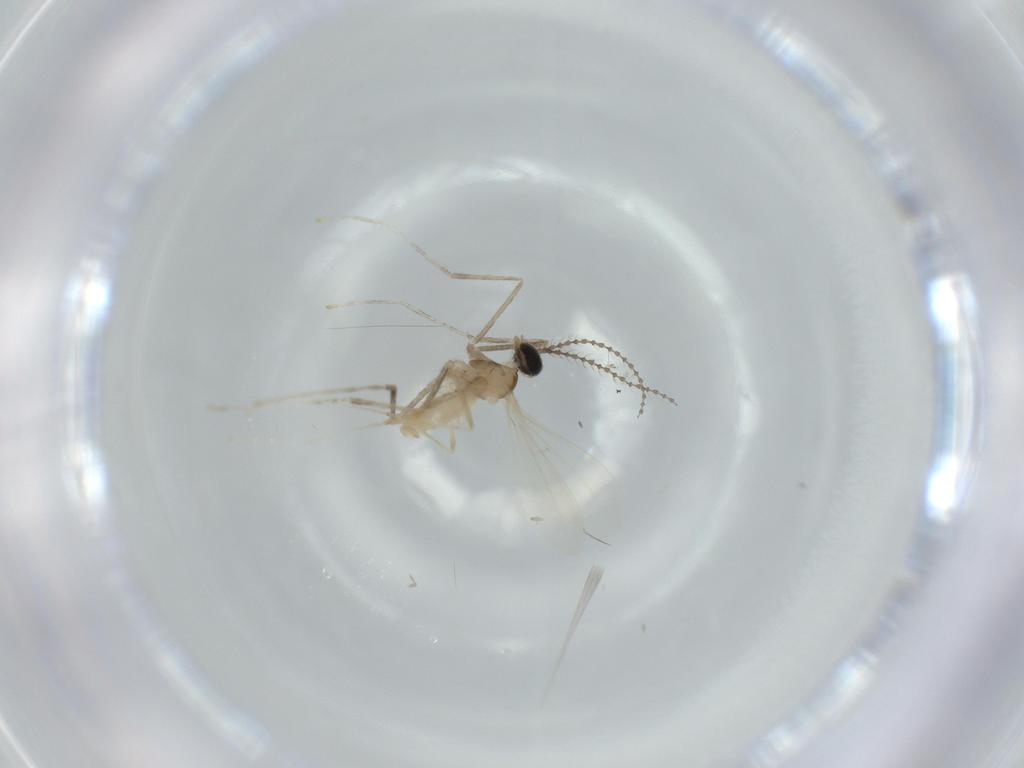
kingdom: Animalia
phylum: Arthropoda
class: Insecta
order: Diptera
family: Cecidomyiidae
